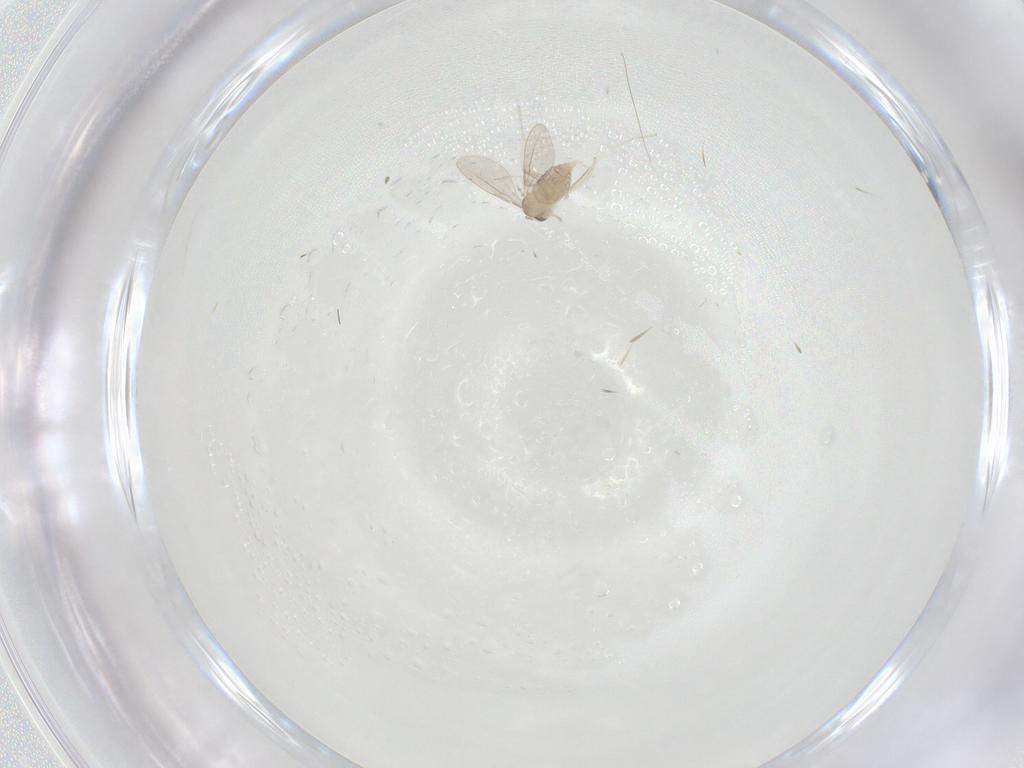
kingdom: Animalia
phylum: Arthropoda
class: Insecta
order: Diptera
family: Cecidomyiidae
